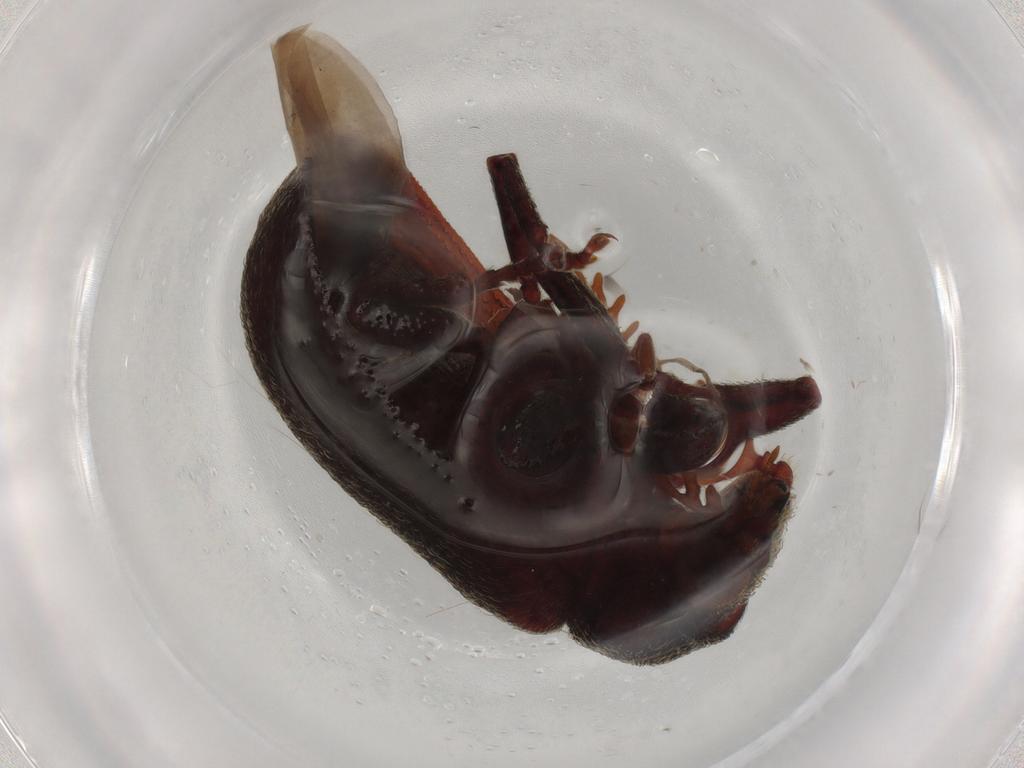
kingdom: Animalia
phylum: Arthropoda
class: Insecta
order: Coleoptera
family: Ptinidae
